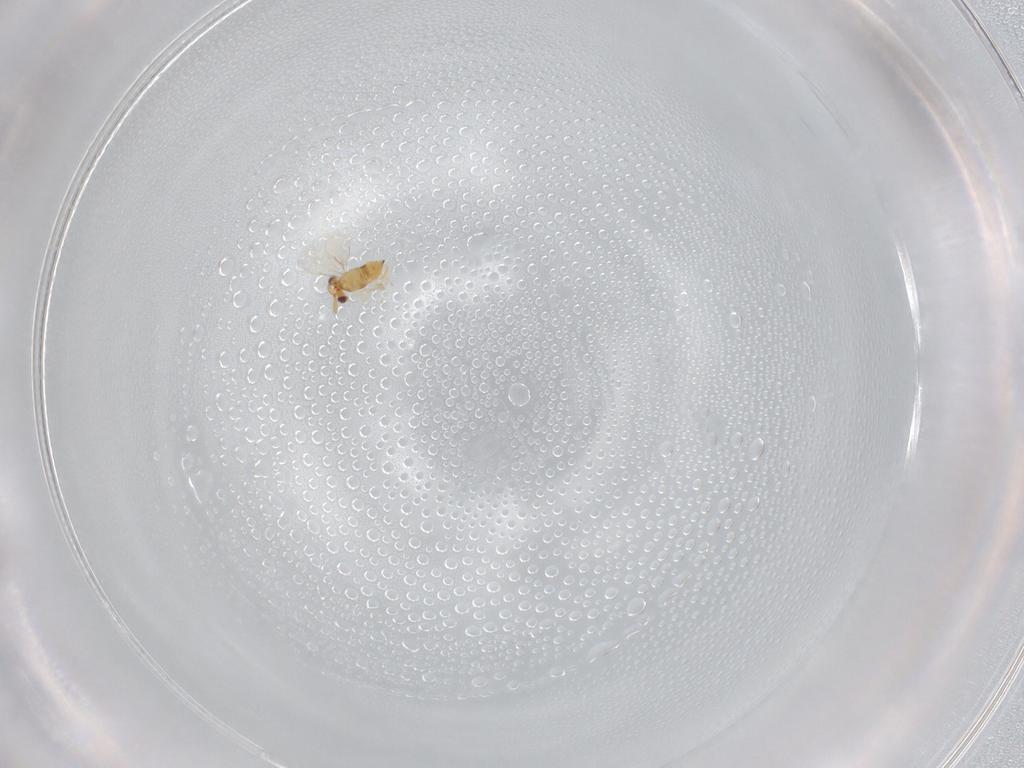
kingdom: Animalia
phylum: Arthropoda
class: Insecta
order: Hymenoptera
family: Aphelinidae
